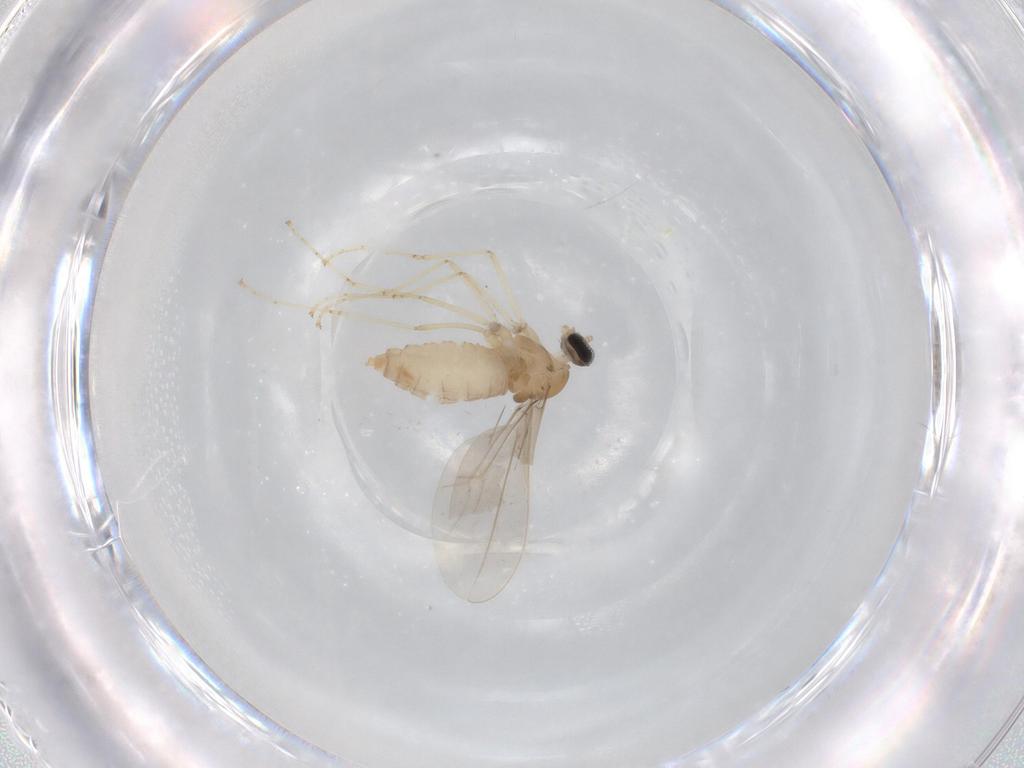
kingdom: Animalia
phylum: Arthropoda
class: Insecta
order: Diptera
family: Cecidomyiidae
